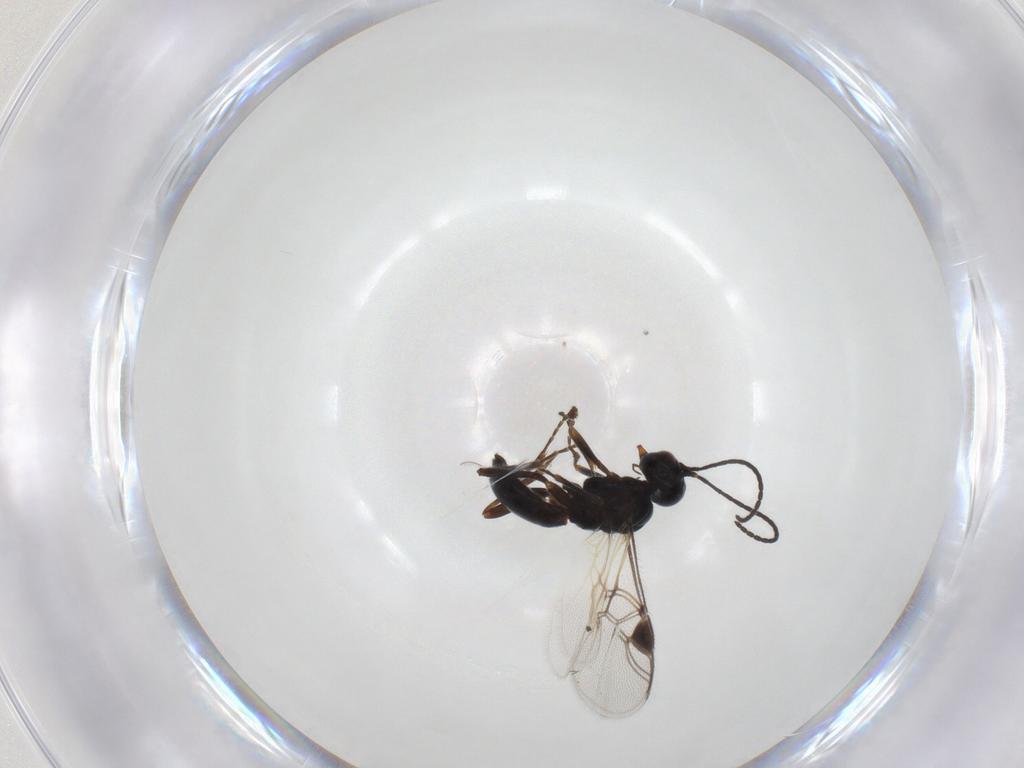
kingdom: Animalia
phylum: Arthropoda
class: Insecta
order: Hymenoptera
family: Braconidae
